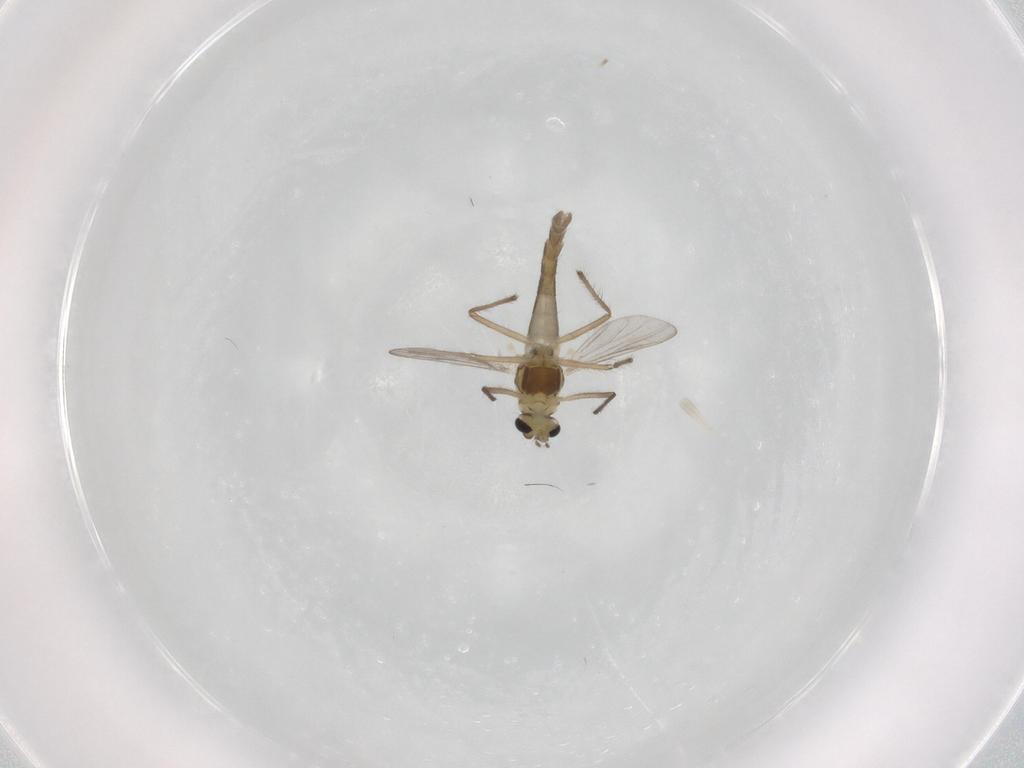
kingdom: Animalia
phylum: Arthropoda
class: Insecta
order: Diptera
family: Chironomidae
